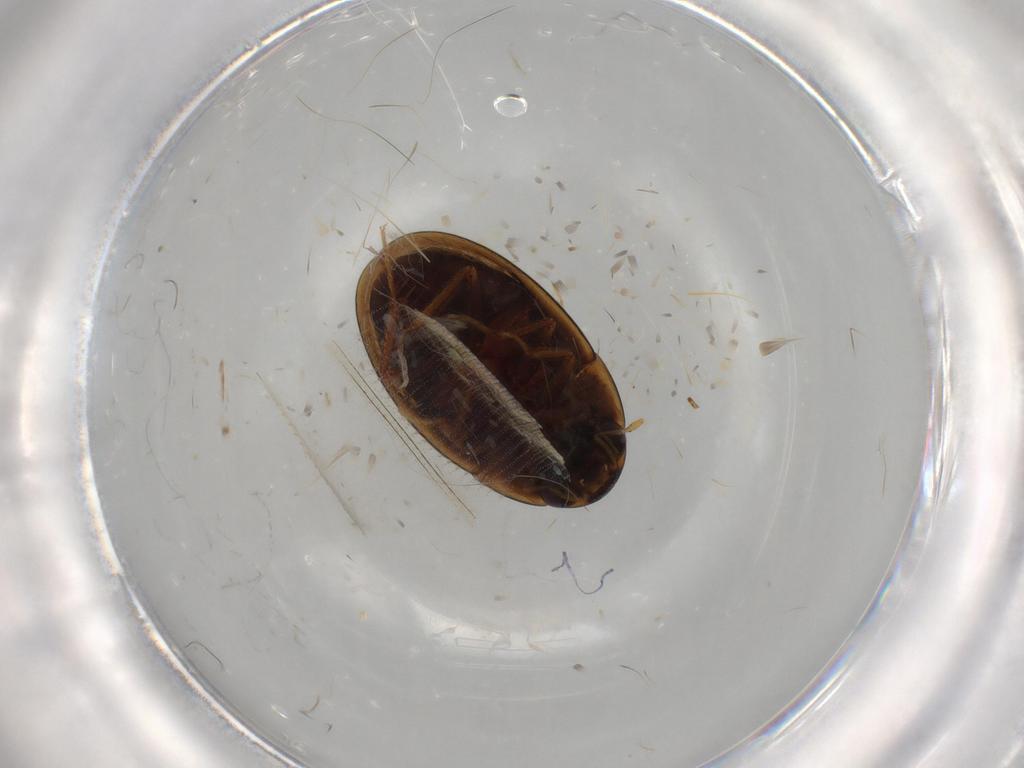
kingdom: Animalia
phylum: Arthropoda
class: Insecta
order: Coleoptera
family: Hydrophilidae
